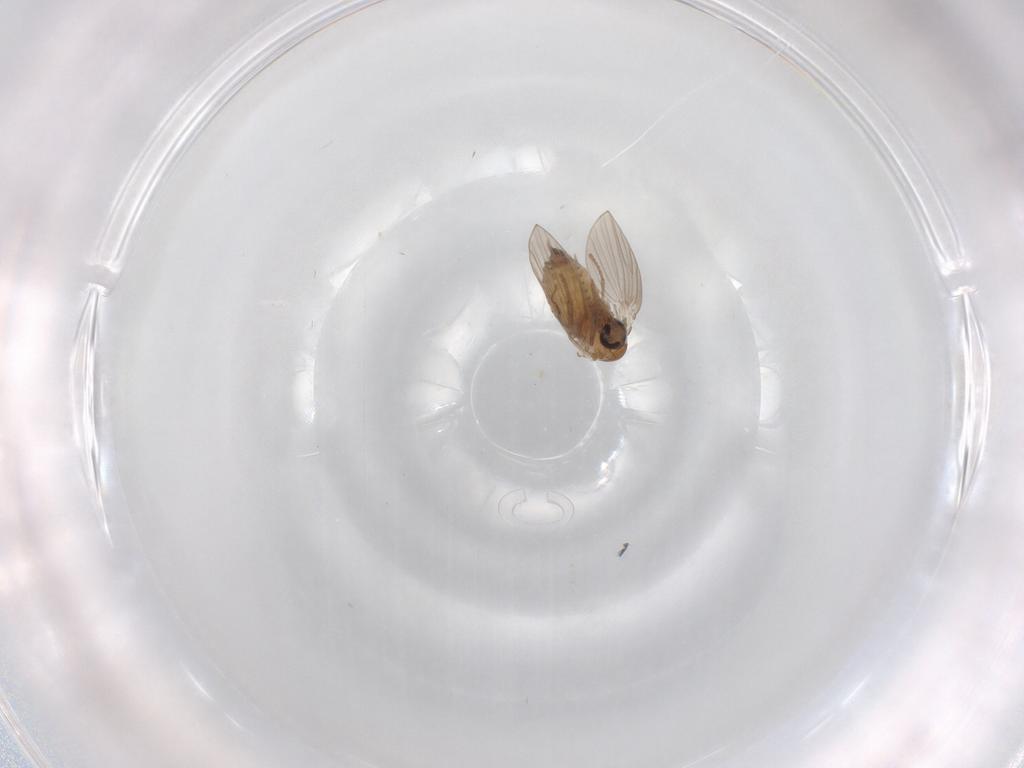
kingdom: Animalia
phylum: Arthropoda
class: Insecta
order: Diptera
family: Psychodidae
